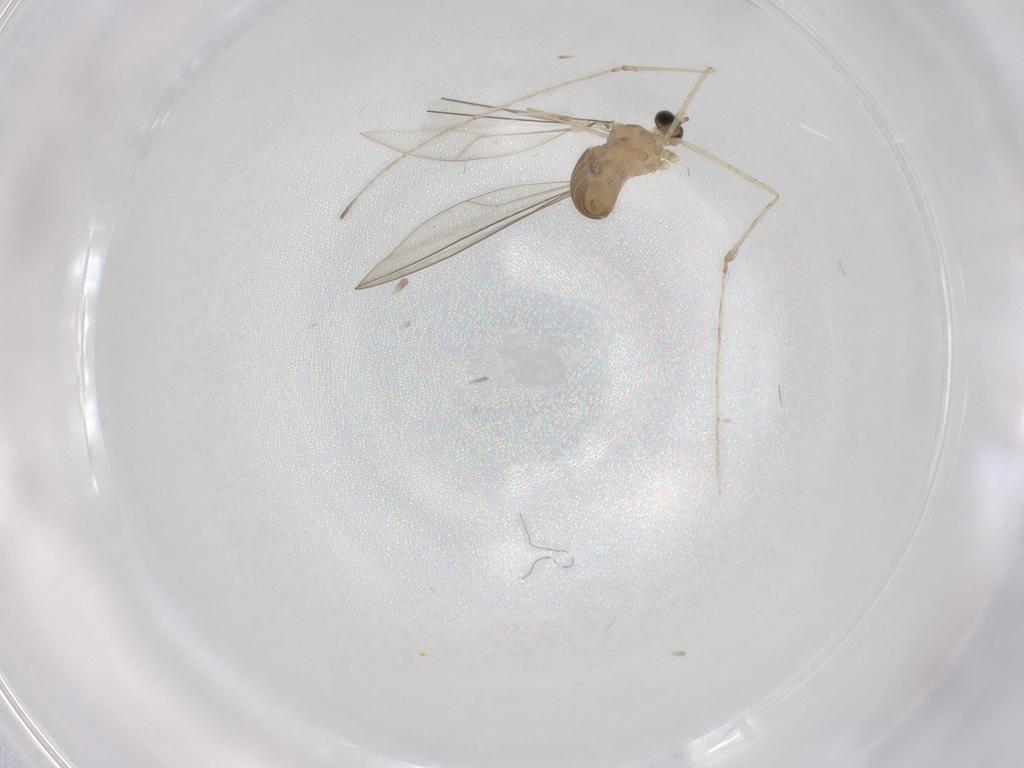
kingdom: Animalia
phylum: Arthropoda
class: Insecta
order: Diptera
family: Cecidomyiidae
